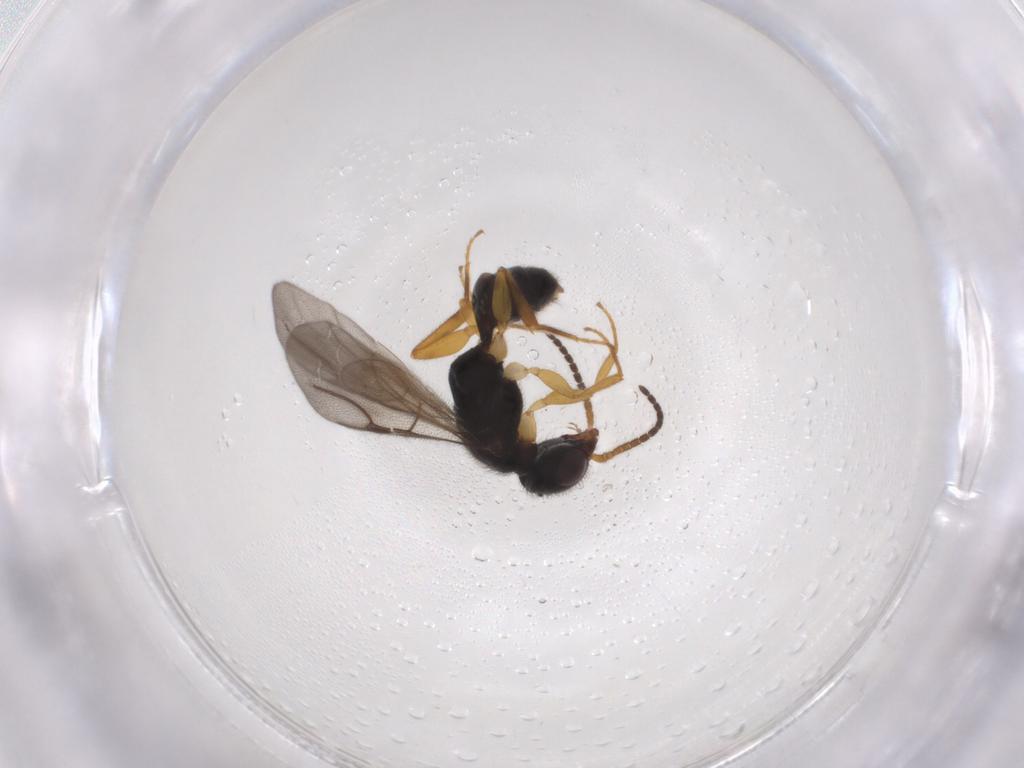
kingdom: Animalia
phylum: Arthropoda
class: Insecta
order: Hymenoptera
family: Bethylidae
